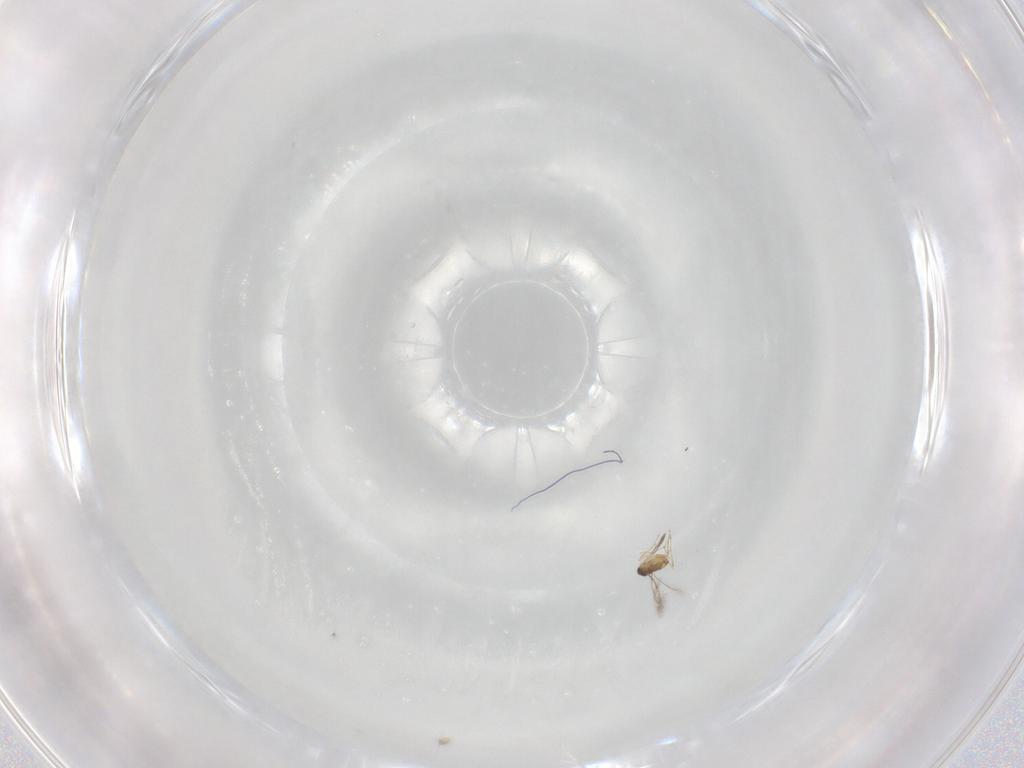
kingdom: Animalia
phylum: Arthropoda
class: Insecta
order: Hymenoptera
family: Mymaridae
